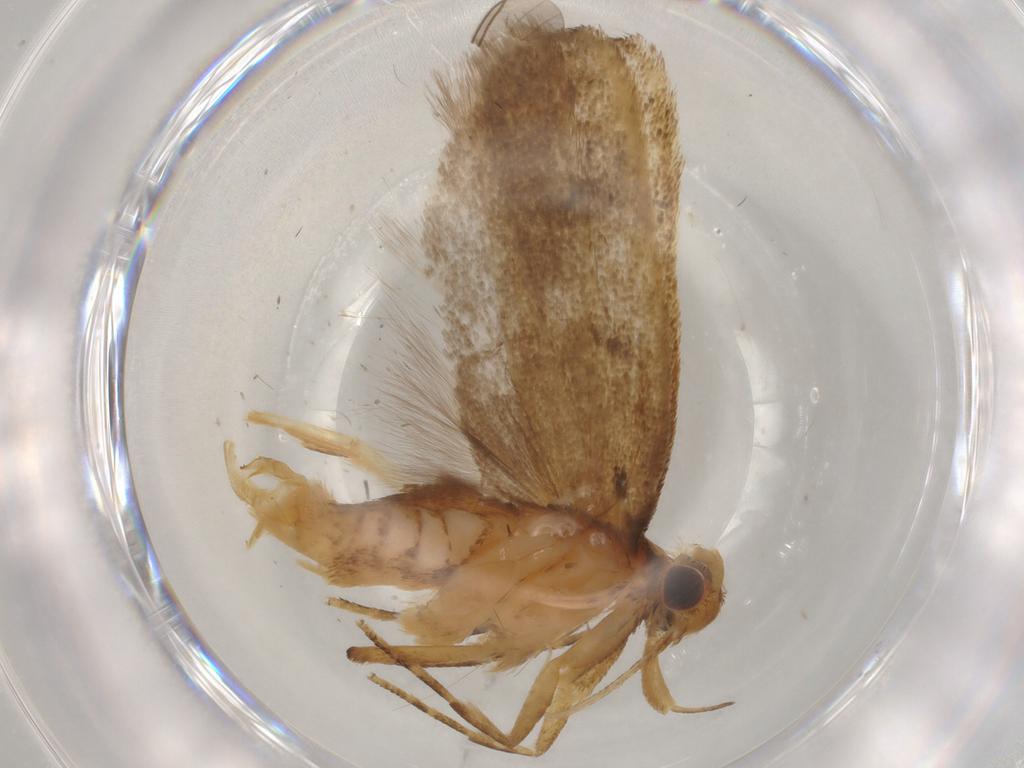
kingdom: Animalia
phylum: Arthropoda
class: Insecta
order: Lepidoptera
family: Lecithoceridae
